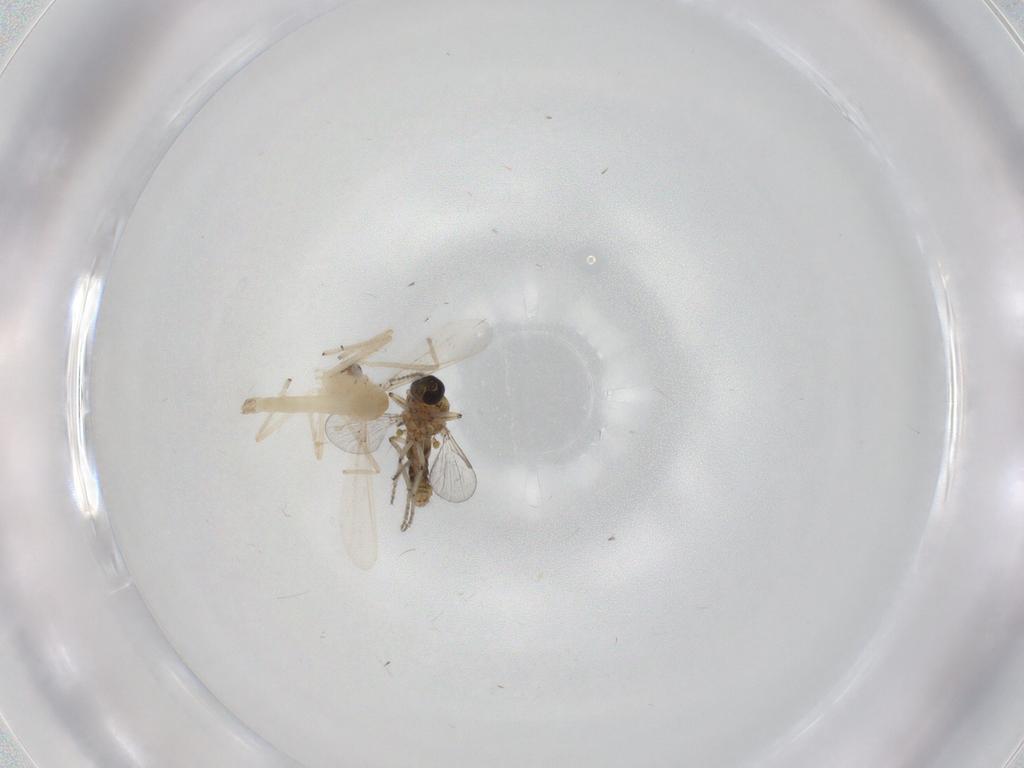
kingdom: Animalia
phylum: Arthropoda
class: Insecta
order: Diptera
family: Ceratopogonidae
